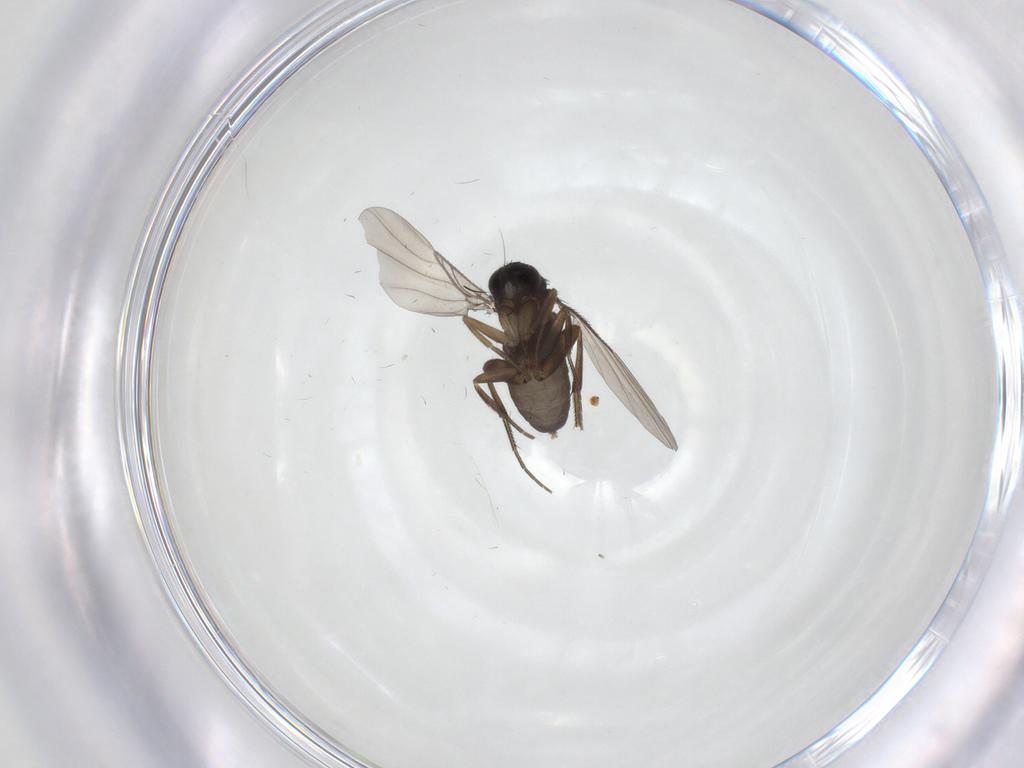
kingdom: Animalia
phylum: Arthropoda
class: Insecta
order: Diptera
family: Phoridae
